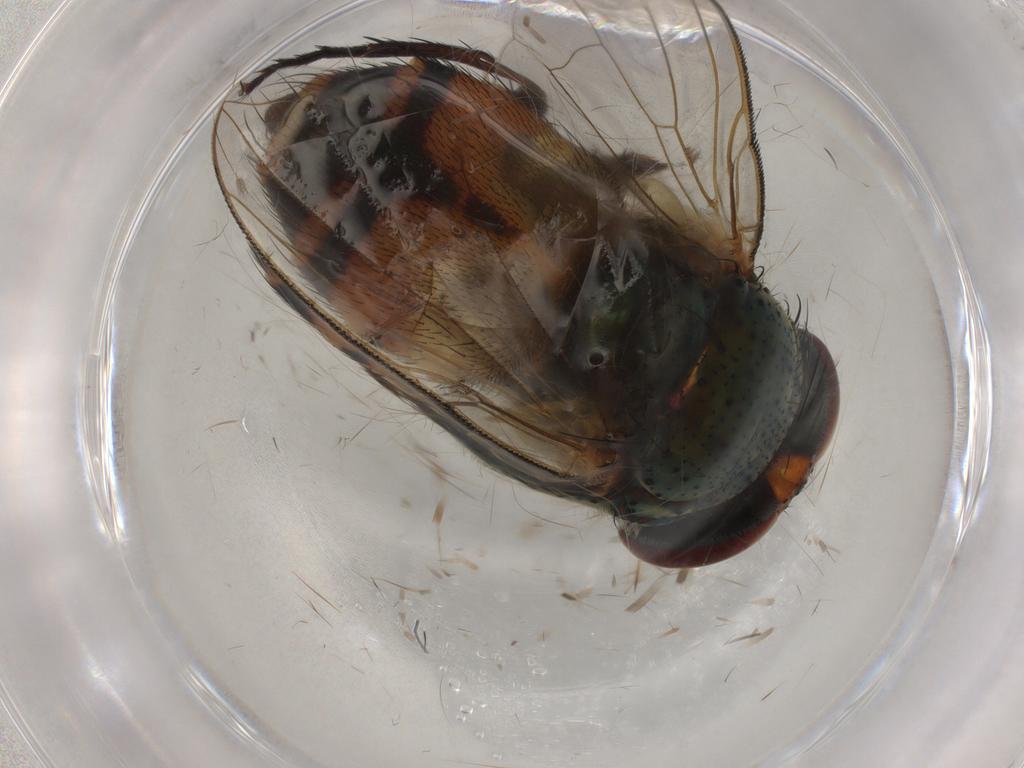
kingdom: Animalia
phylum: Arthropoda
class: Insecta
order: Diptera
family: Calliphoridae
